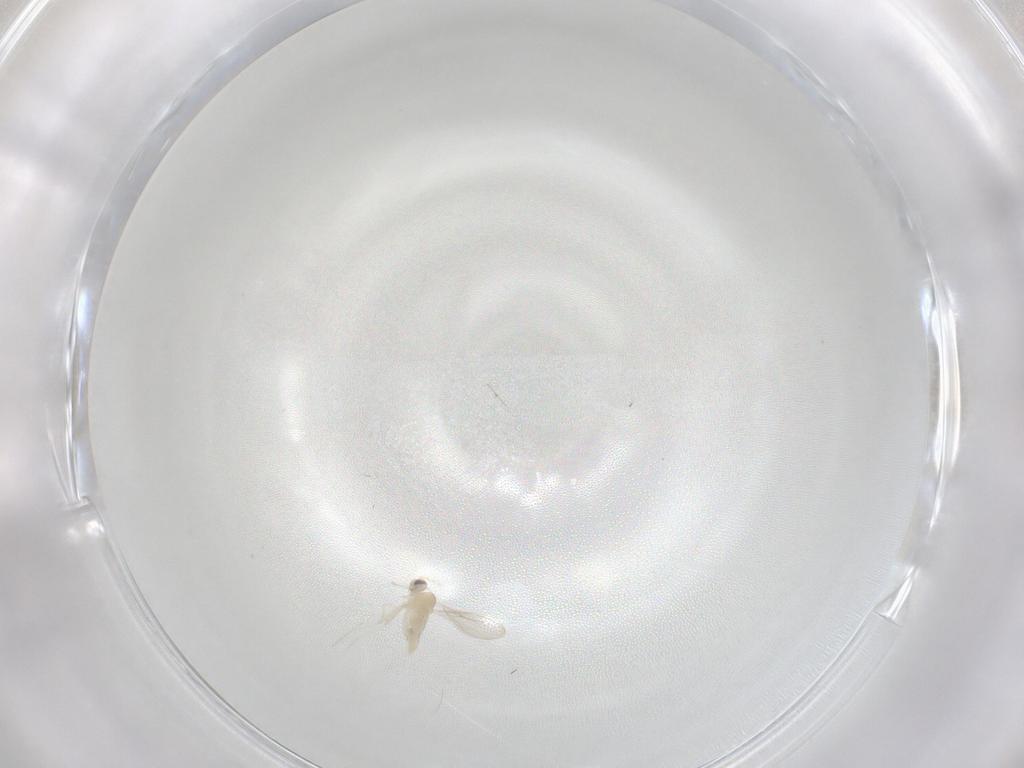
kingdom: Animalia
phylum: Arthropoda
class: Insecta
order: Diptera
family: Cecidomyiidae
